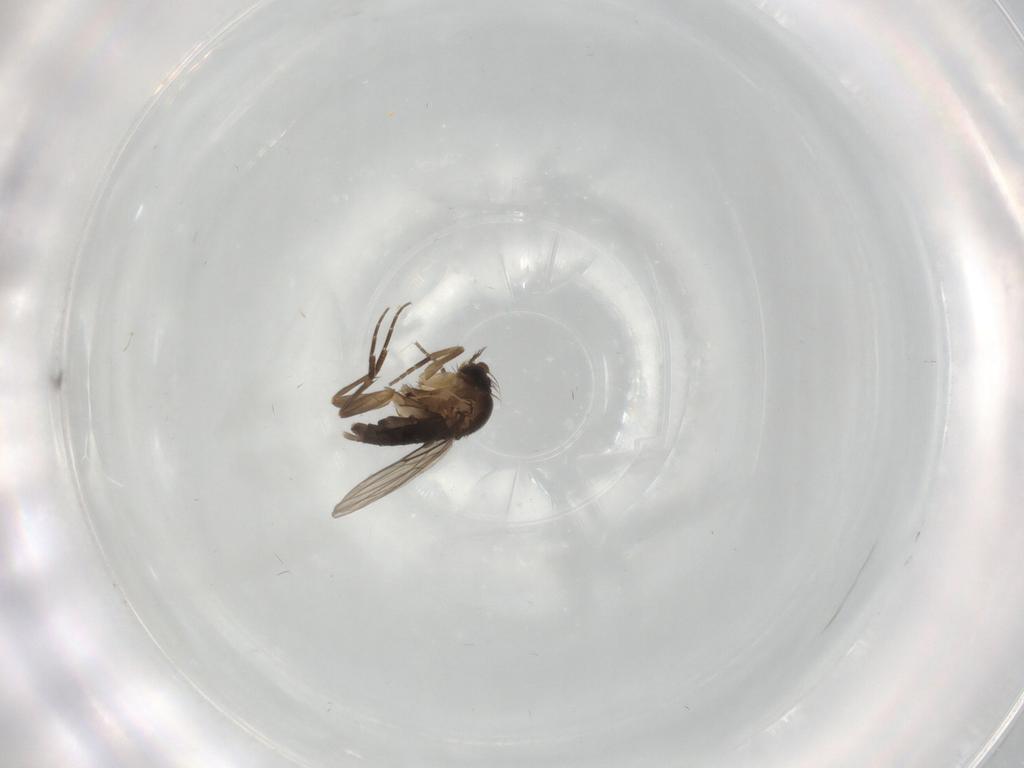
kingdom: Animalia
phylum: Arthropoda
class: Insecta
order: Diptera
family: Phoridae
